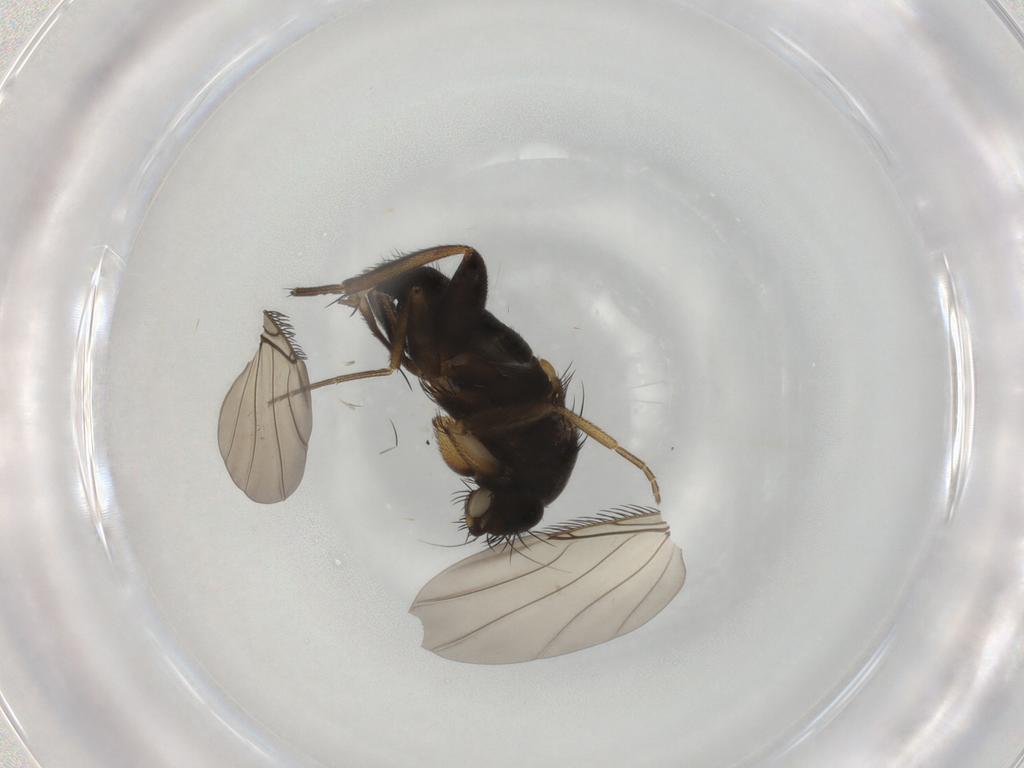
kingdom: Animalia
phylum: Arthropoda
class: Insecta
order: Diptera
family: Phoridae
